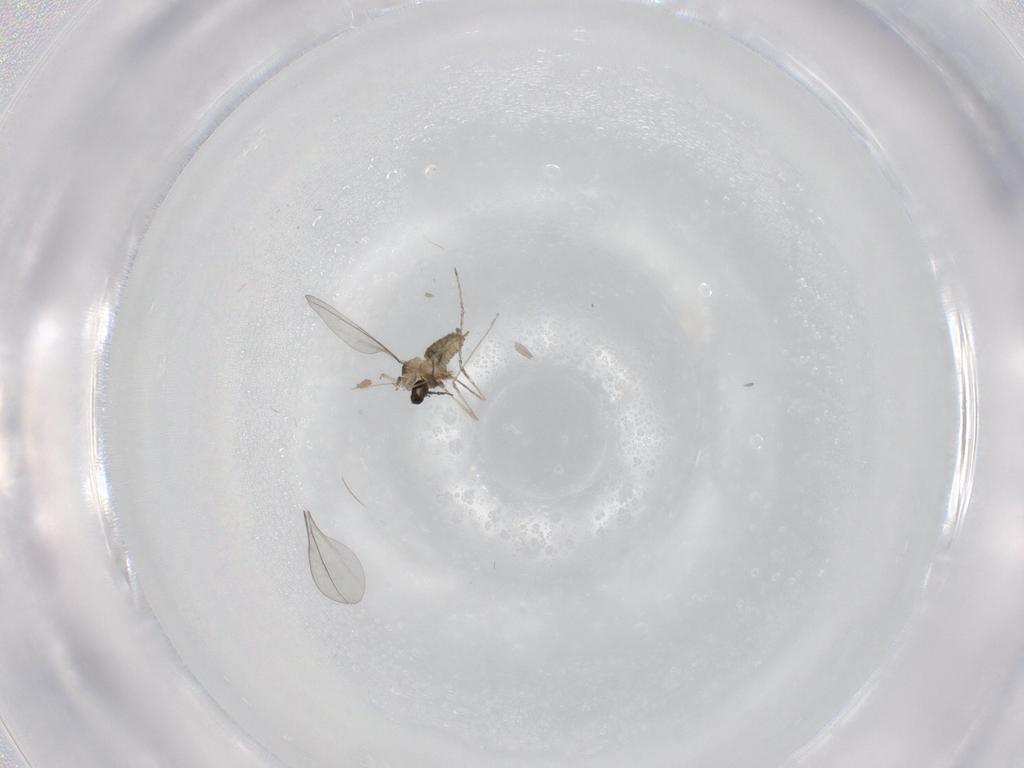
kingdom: Animalia
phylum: Arthropoda
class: Insecta
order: Diptera
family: Cecidomyiidae
